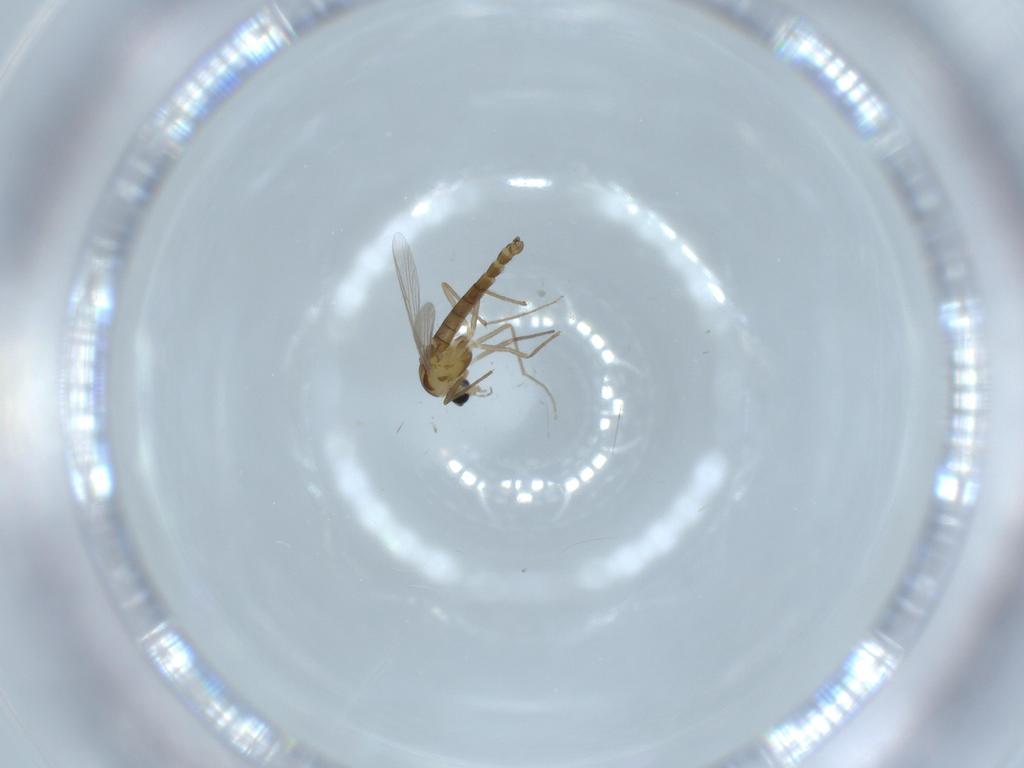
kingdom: Animalia
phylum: Arthropoda
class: Insecta
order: Diptera
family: Chironomidae
